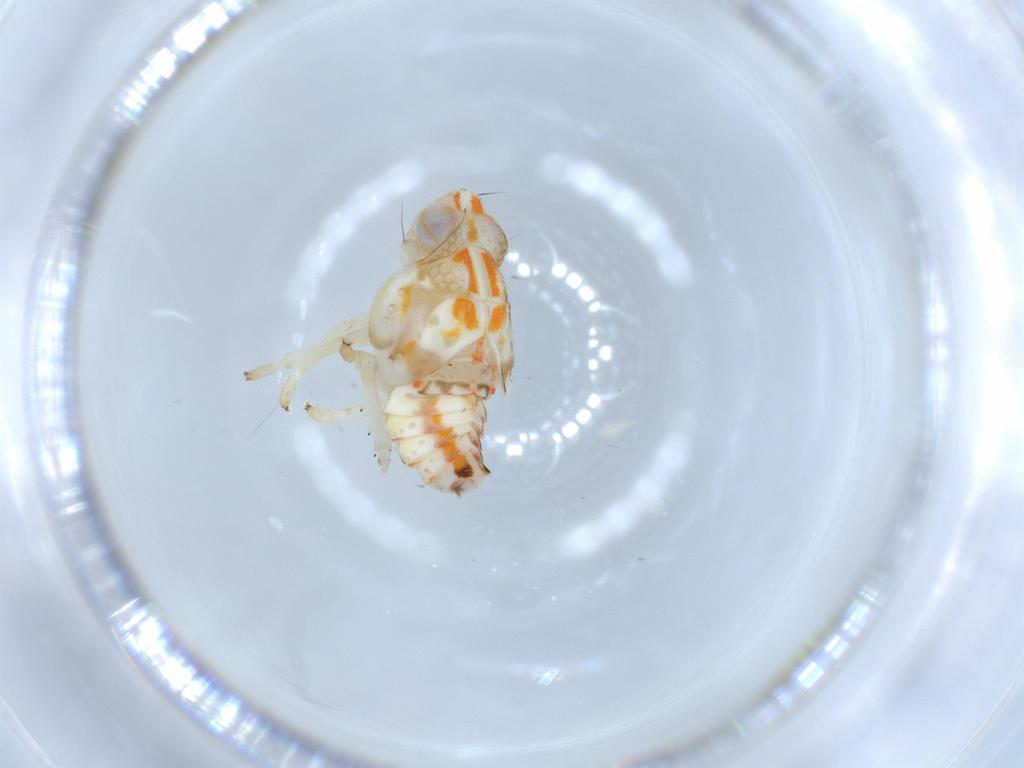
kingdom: Animalia
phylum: Arthropoda
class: Insecta
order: Hemiptera
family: Nogodinidae
